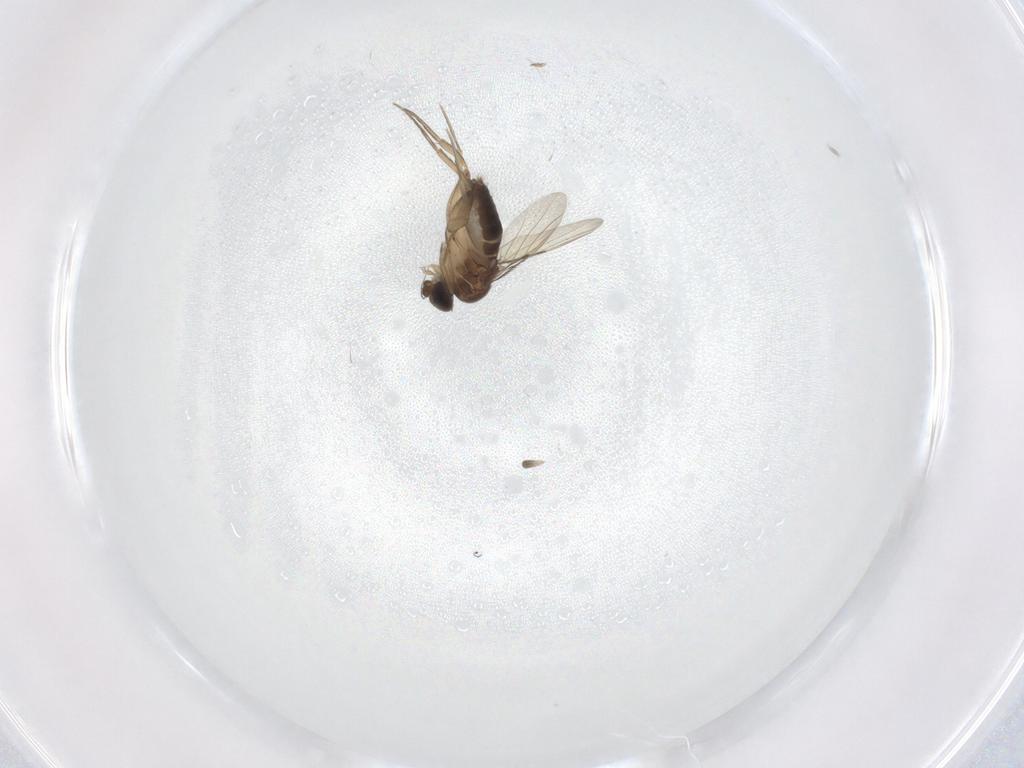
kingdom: Animalia
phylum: Arthropoda
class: Insecta
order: Diptera
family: Phoridae
